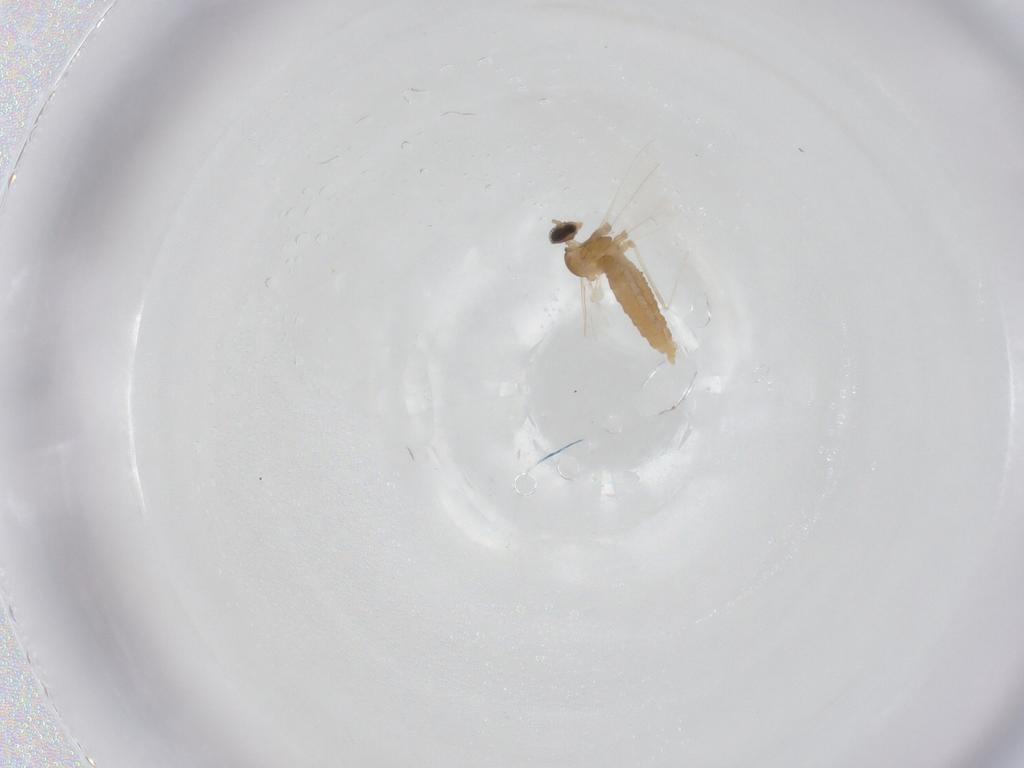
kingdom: Animalia
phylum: Arthropoda
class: Insecta
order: Diptera
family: Cecidomyiidae
